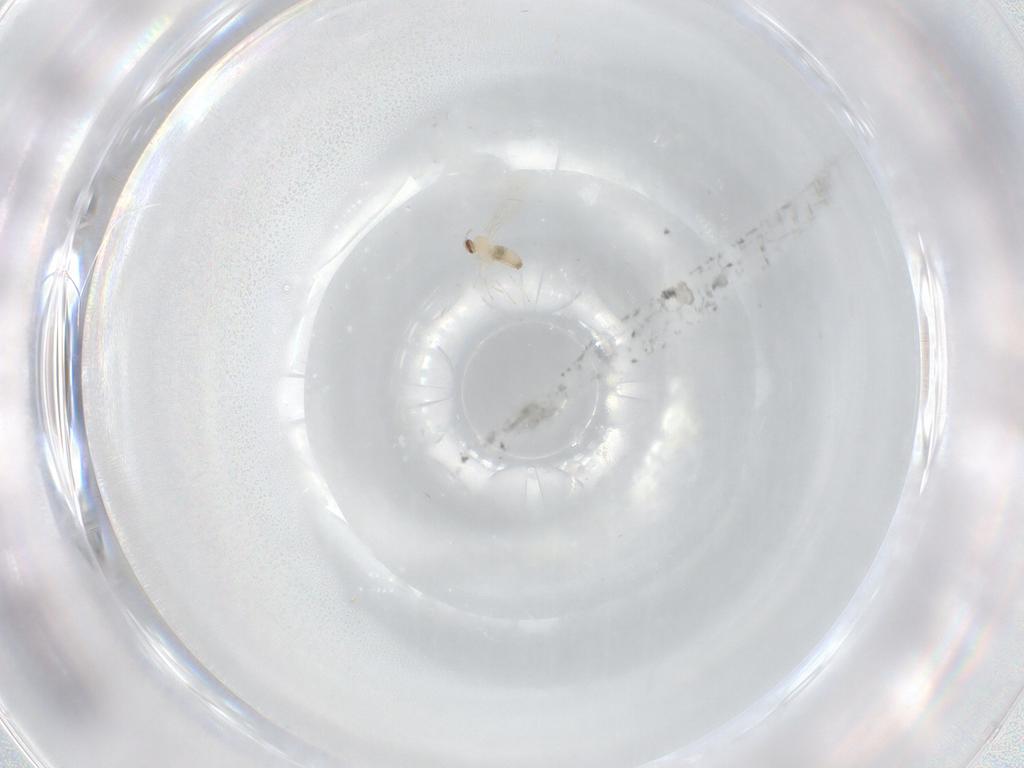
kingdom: Animalia
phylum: Arthropoda
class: Insecta
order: Diptera
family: Cecidomyiidae
